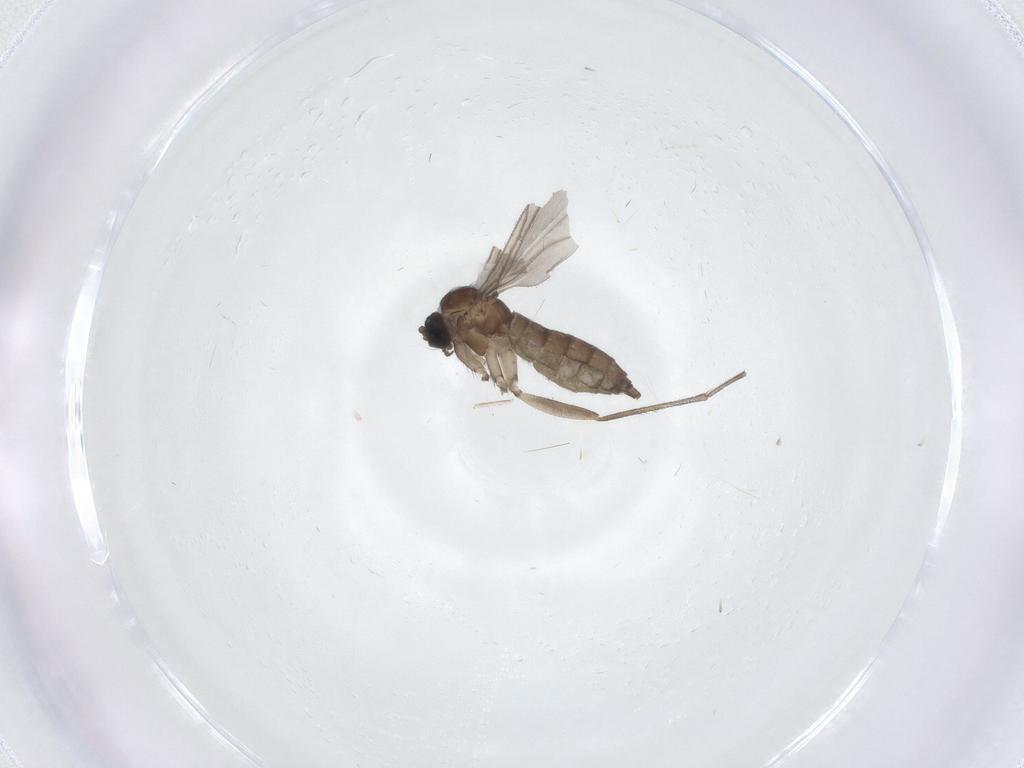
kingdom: Animalia
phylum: Arthropoda
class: Insecta
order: Diptera
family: Sciaridae
